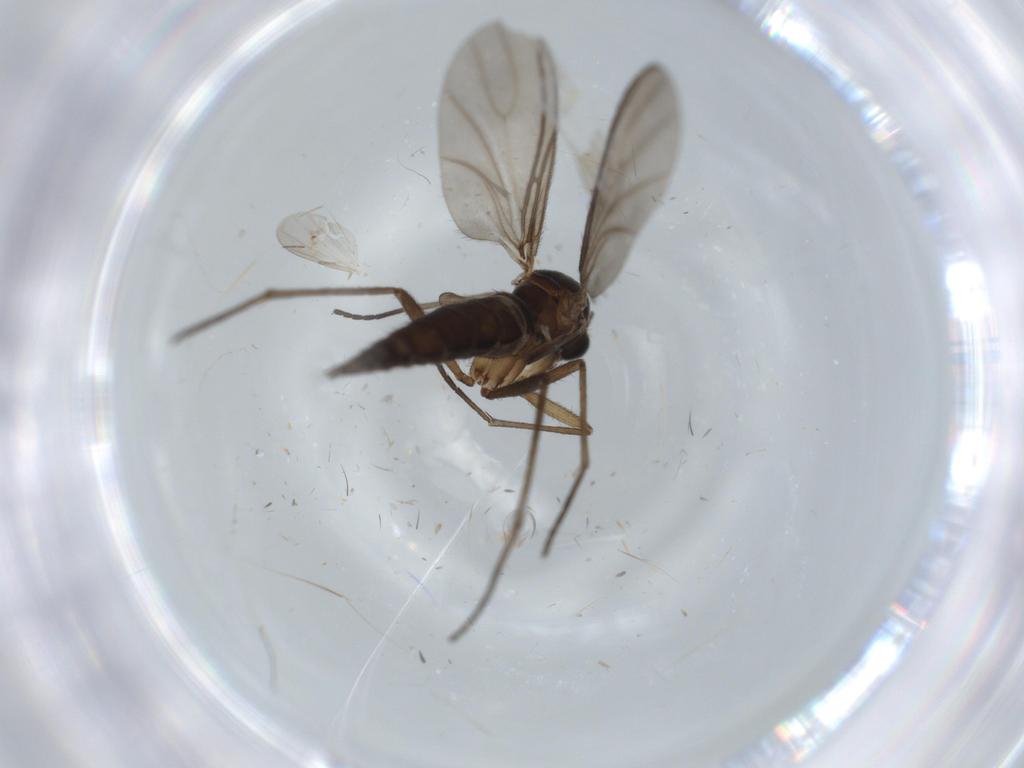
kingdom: Animalia
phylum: Arthropoda
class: Insecta
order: Diptera
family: Sciaridae
